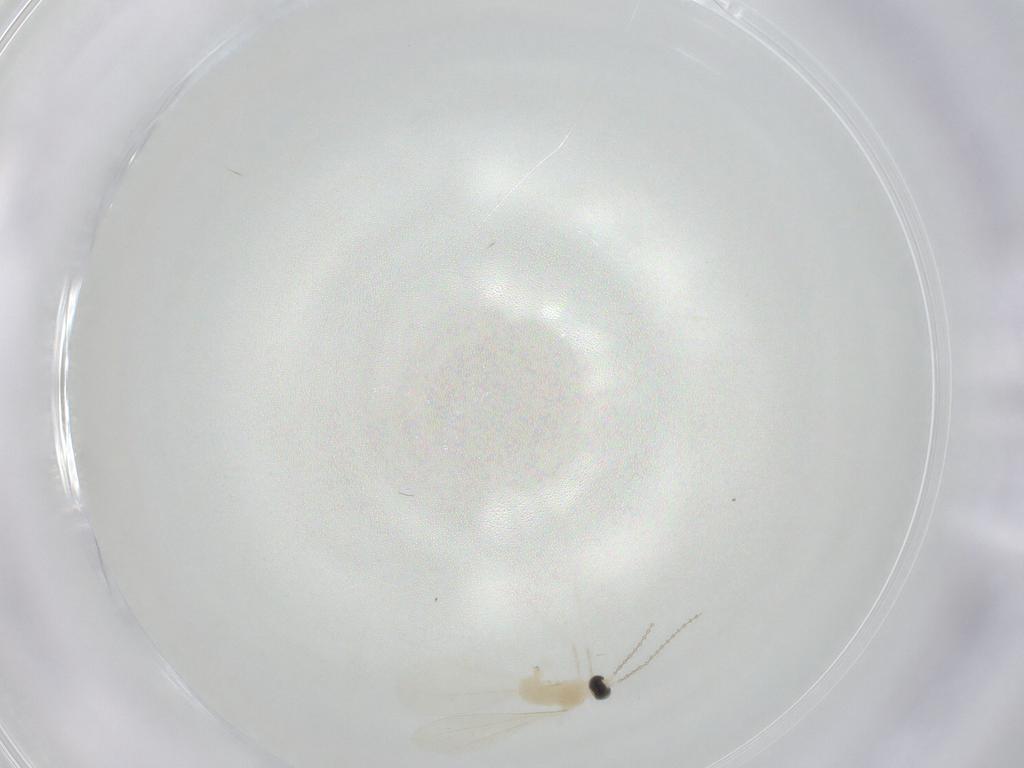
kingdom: Animalia
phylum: Arthropoda
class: Insecta
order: Diptera
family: Cecidomyiidae
